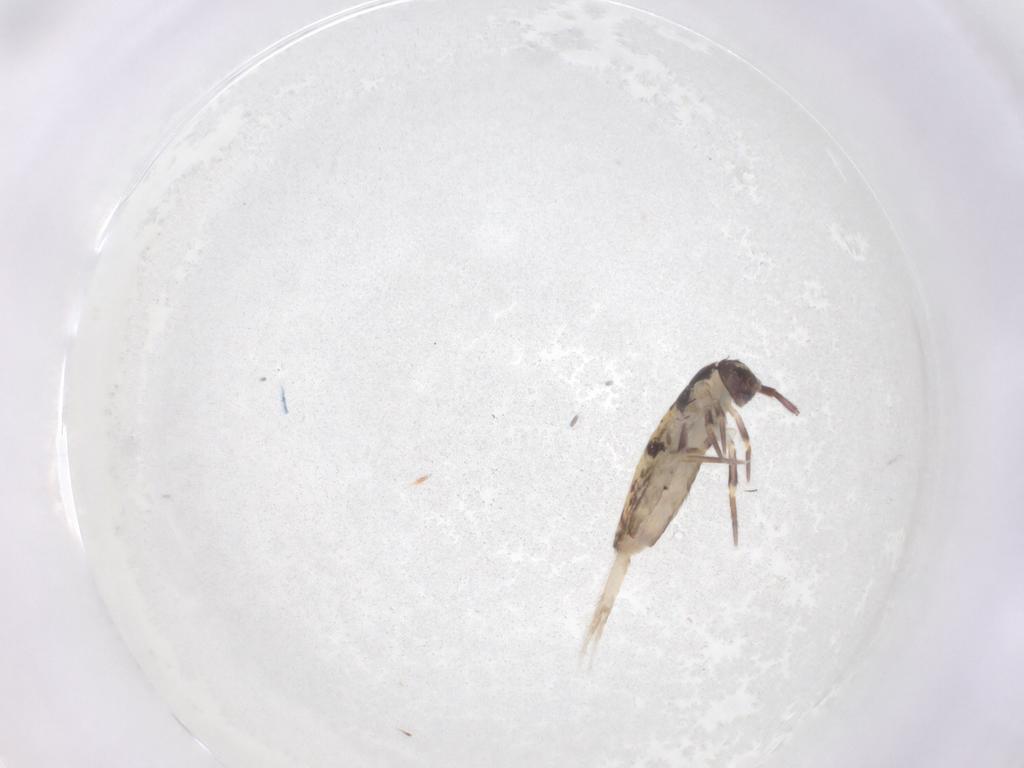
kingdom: Animalia
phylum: Arthropoda
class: Collembola
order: Entomobryomorpha
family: Entomobryidae
